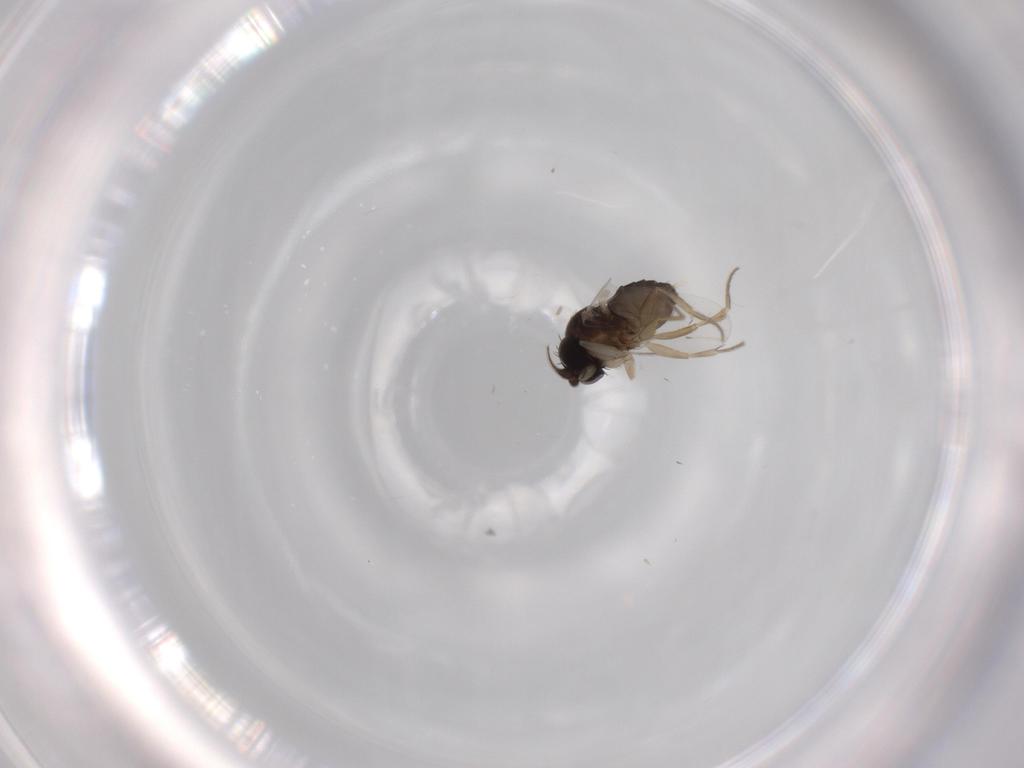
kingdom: Animalia
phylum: Arthropoda
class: Insecta
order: Diptera
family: Phoridae
